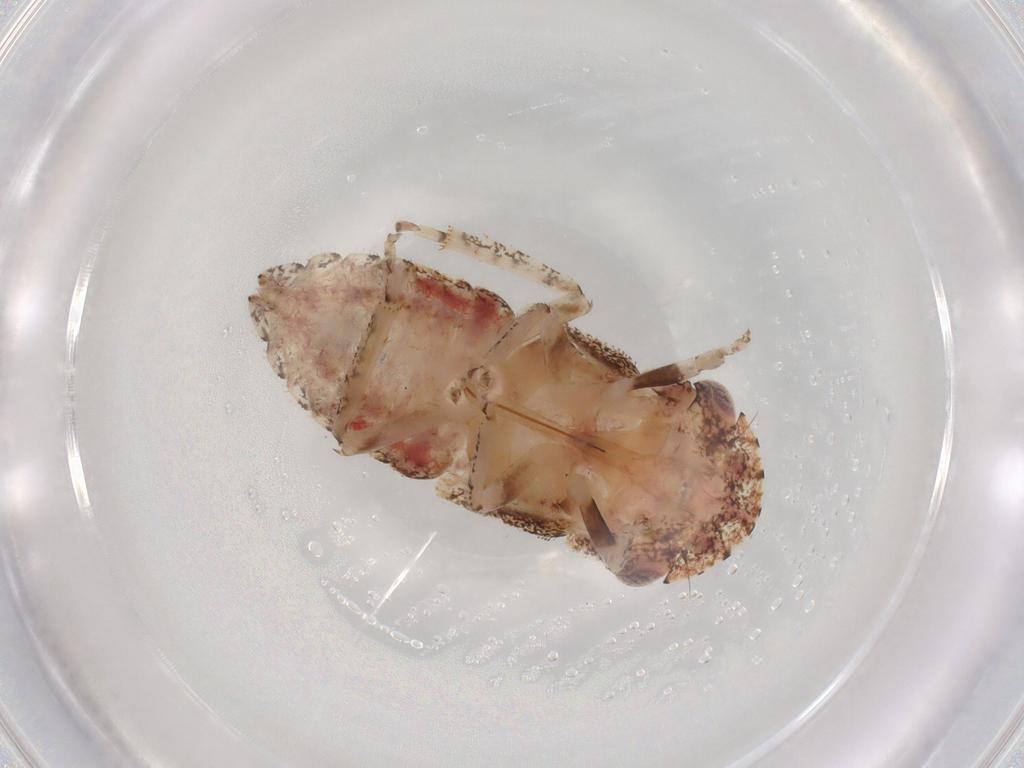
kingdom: Animalia
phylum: Arthropoda
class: Insecta
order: Hemiptera
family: Cicadellidae
